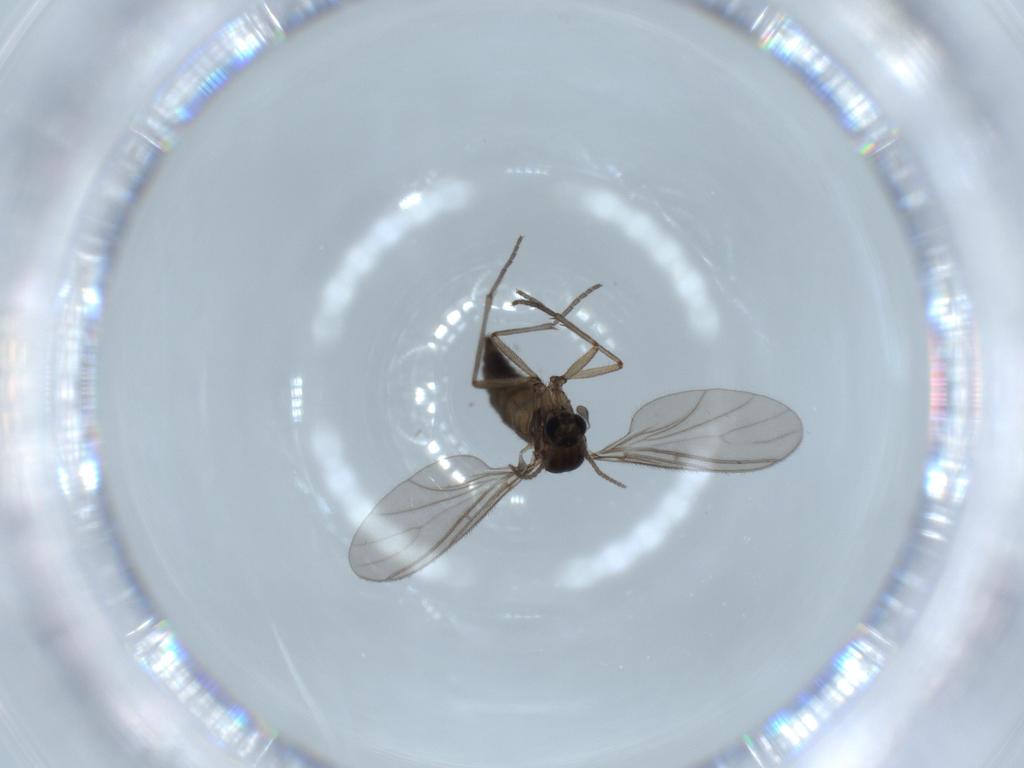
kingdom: Animalia
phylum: Arthropoda
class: Insecta
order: Diptera
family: Sciaridae
